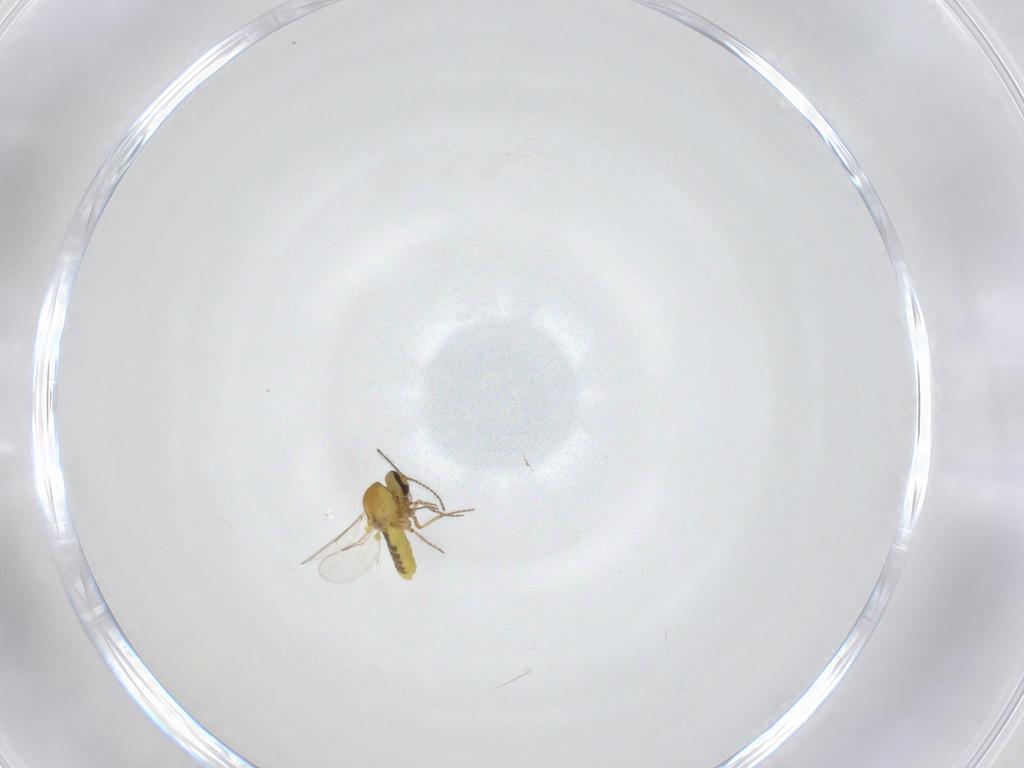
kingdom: Animalia
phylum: Arthropoda
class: Insecta
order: Diptera
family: Ceratopogonidae
